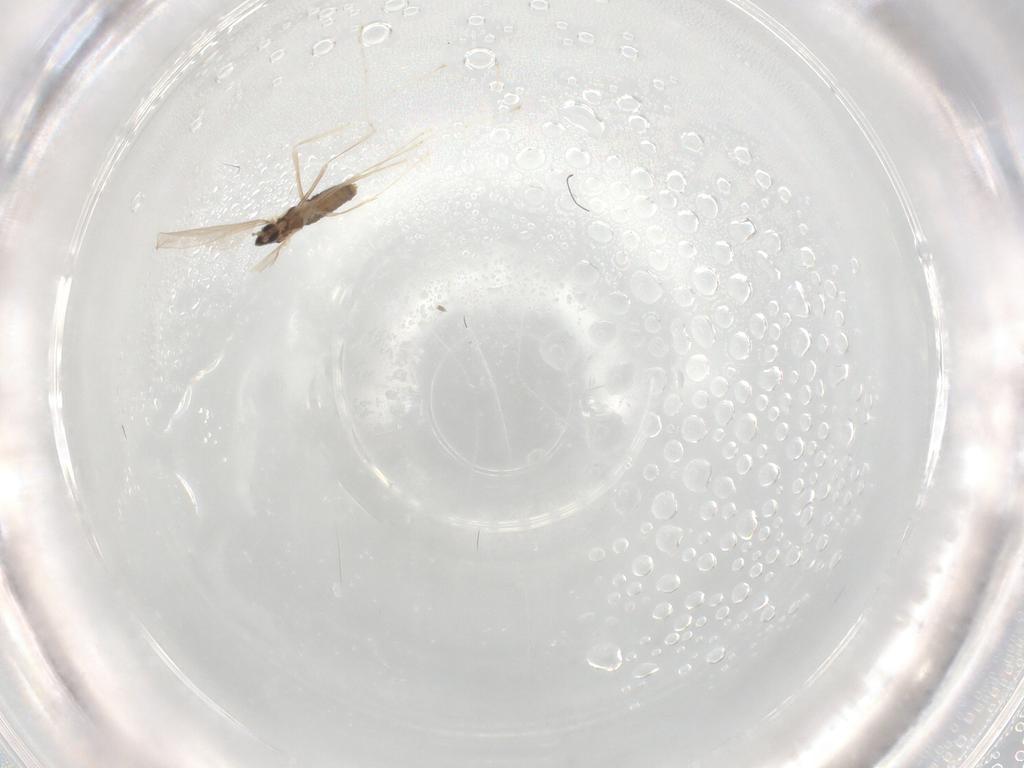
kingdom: Animalia
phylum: Arthropoda
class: Insecta
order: Diptera
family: Cecidomyiidae
